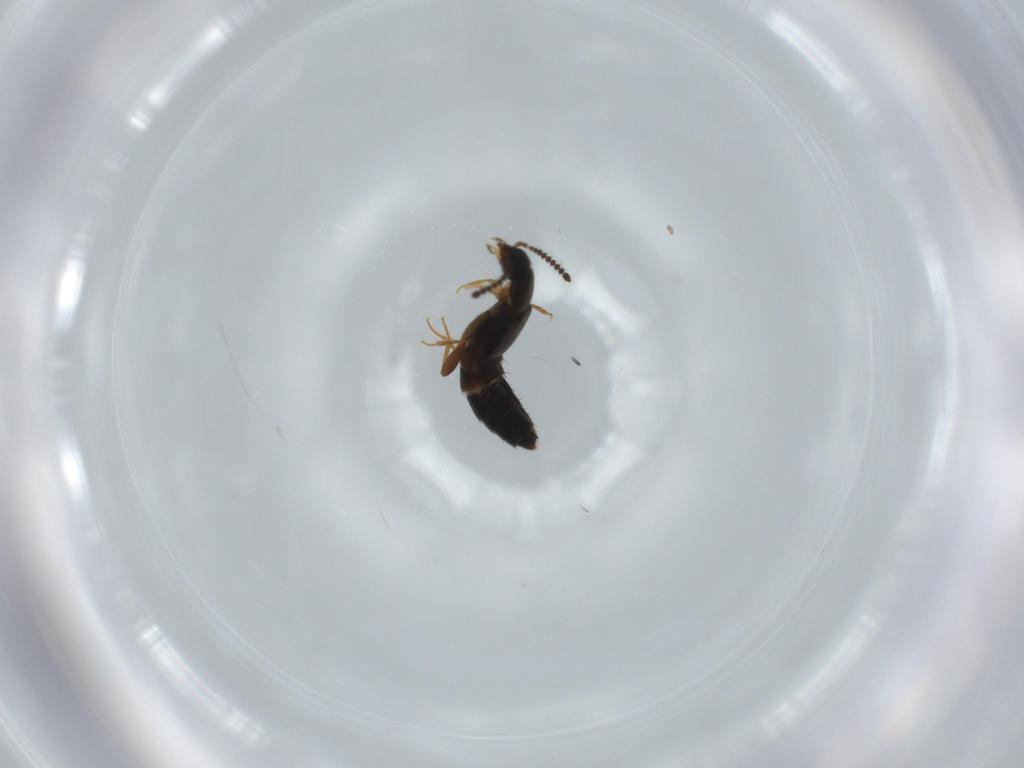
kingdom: Animalia
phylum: Arthropoda
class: Insecta
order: Coleoptera
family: Staphylinidae
